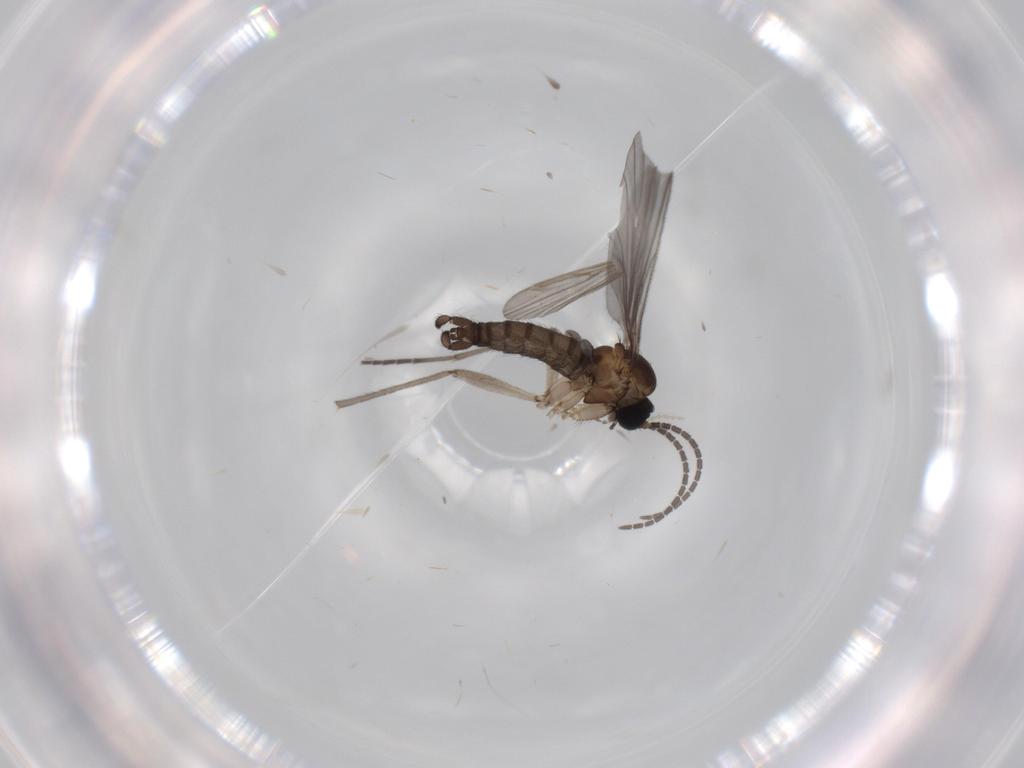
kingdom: Animalia
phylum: Arthropoda
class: Insecta
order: Diptera
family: Sciaridae
